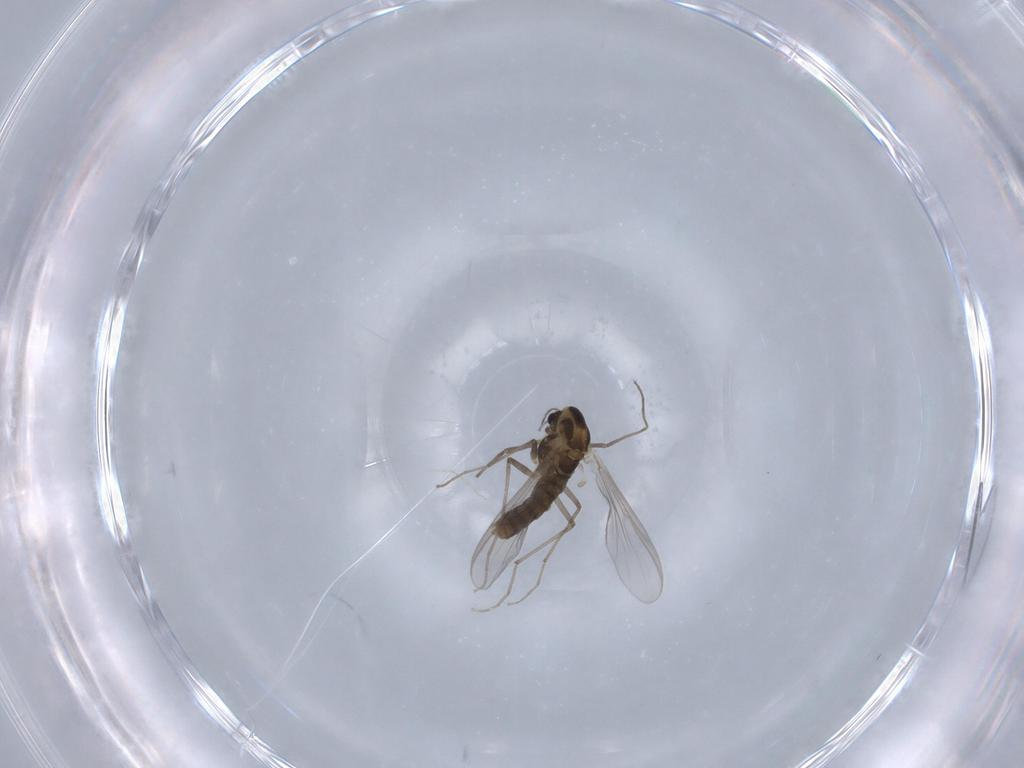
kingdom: Animalia
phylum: Arthropoda
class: Insecta
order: Diptera
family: Chironomidae
